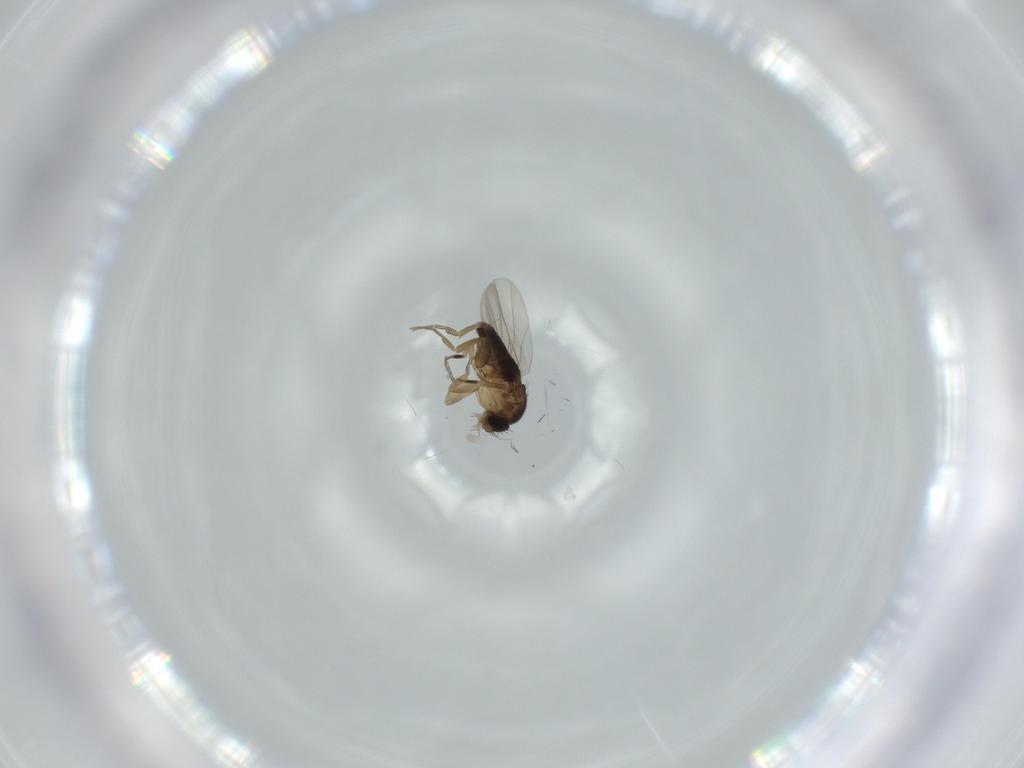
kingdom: Animalia
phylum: Arthropoda
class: Insecta
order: Diptera
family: Phoridae
